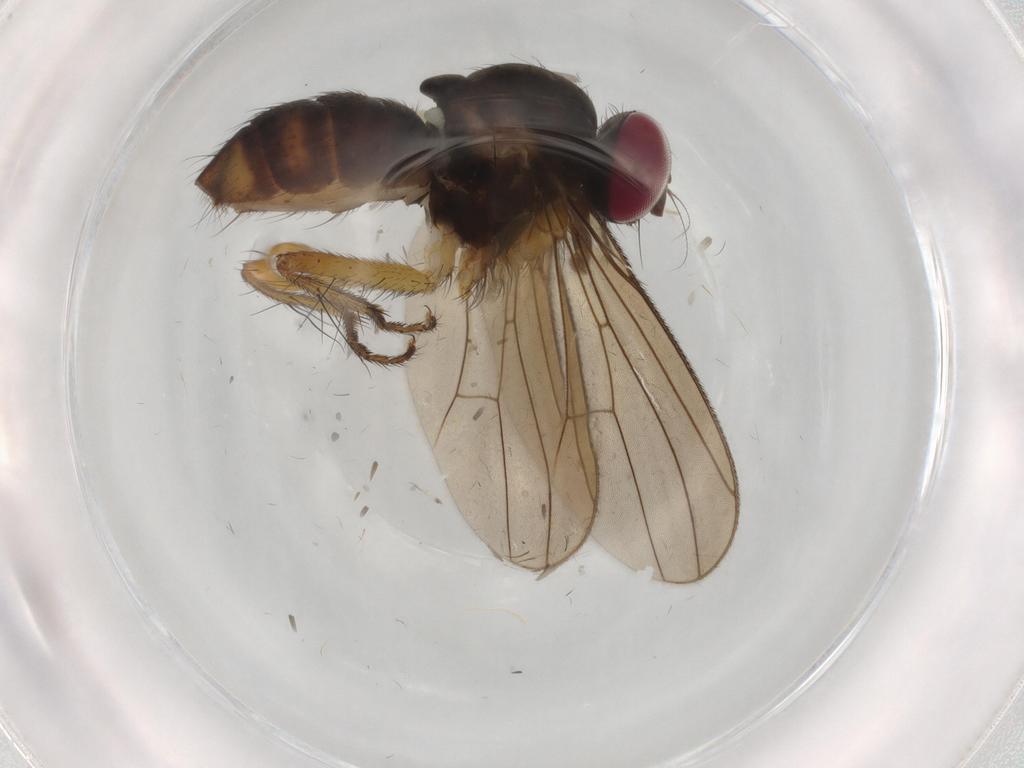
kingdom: Animalia
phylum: Arthropoda
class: Insecta
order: Diptera
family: Anthomyiidae
